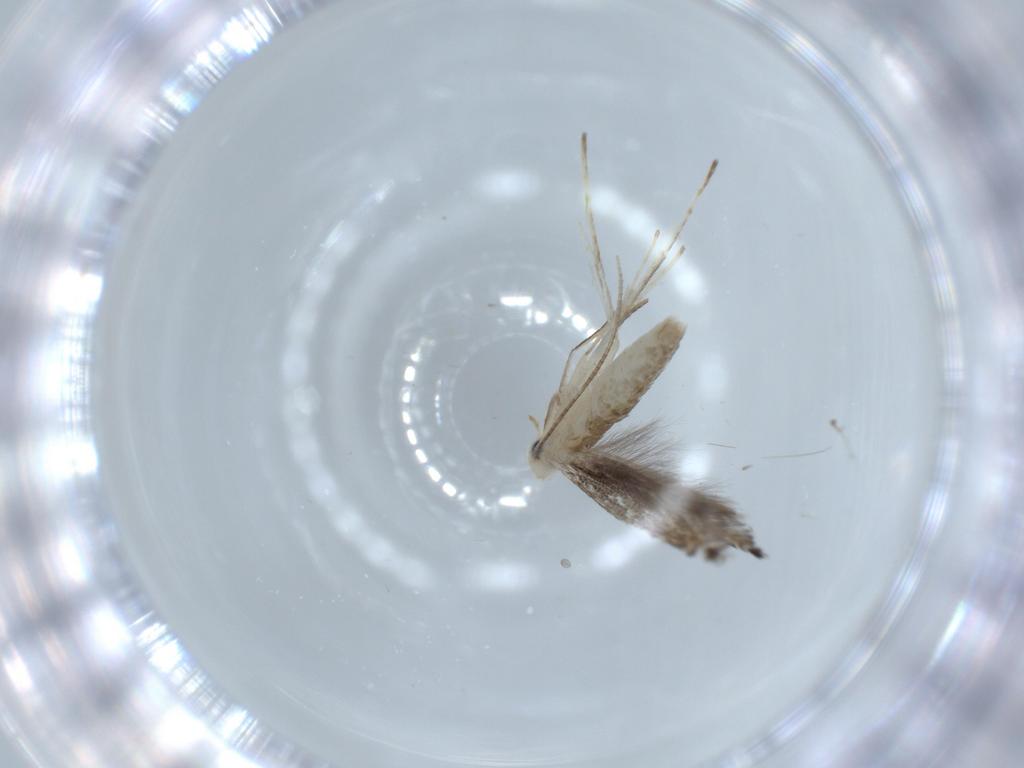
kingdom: Animalia
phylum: Arthropoda
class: Insecta
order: Lepidoptera
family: Gracillariidae
